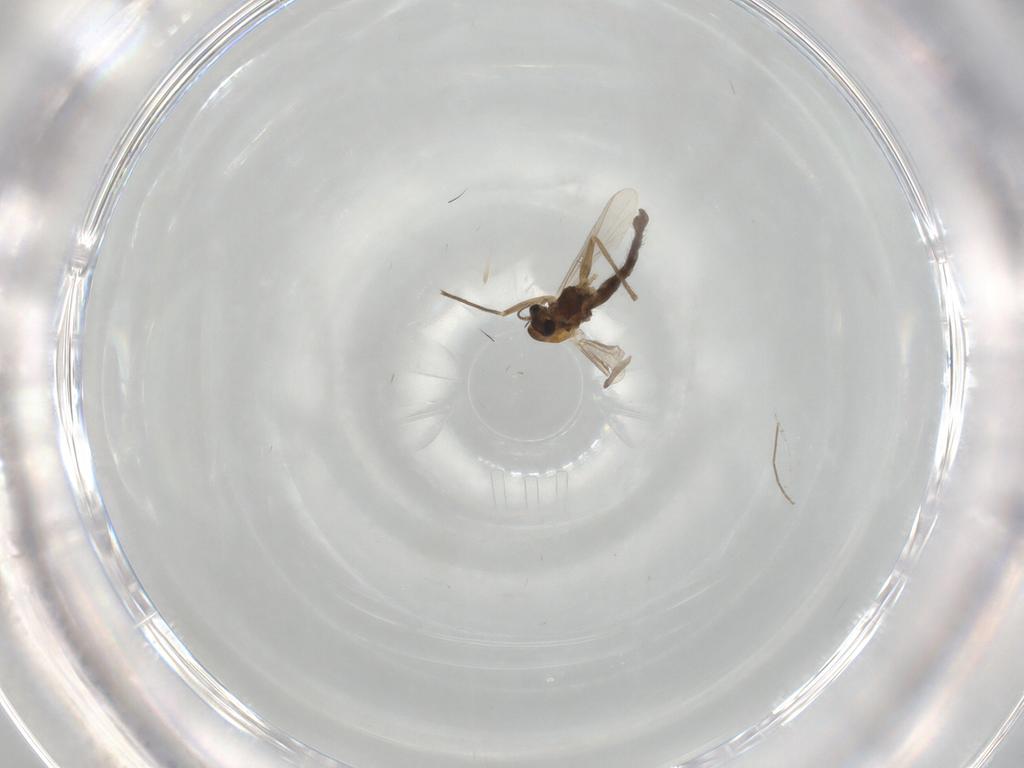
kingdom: Animalia
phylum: Arthropoda
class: Insecta
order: Diptera
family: Chironomidae
